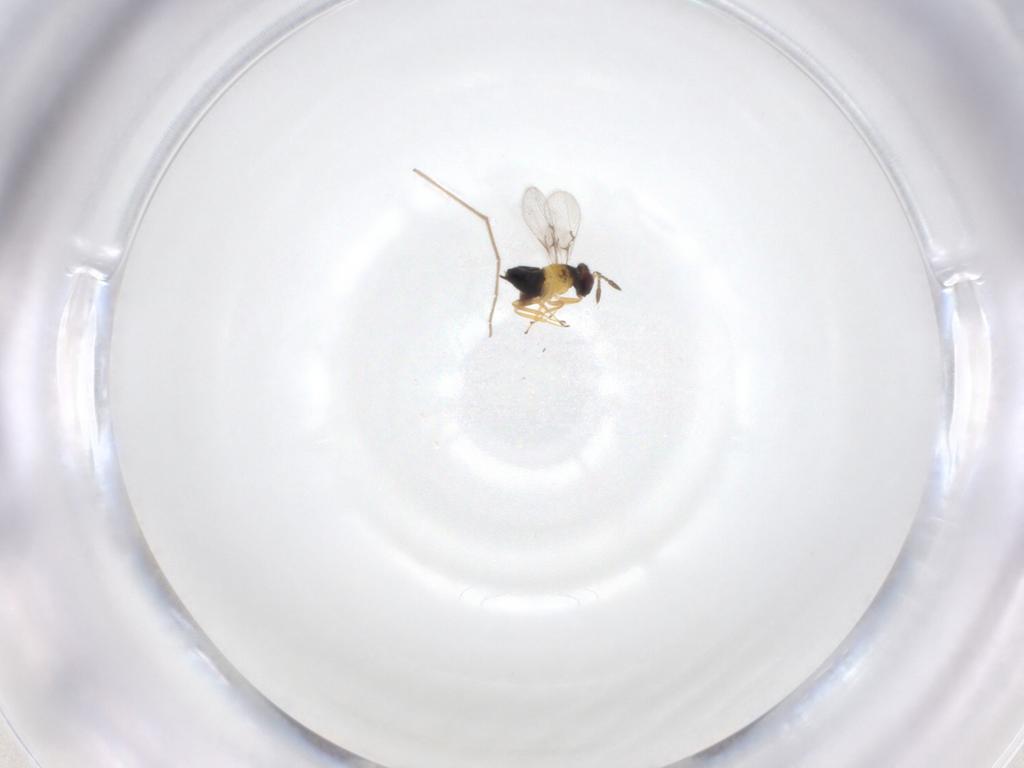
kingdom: Animalia
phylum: Arthropoda
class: Insecta
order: Hymenoptera
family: Trichogrammatidae
